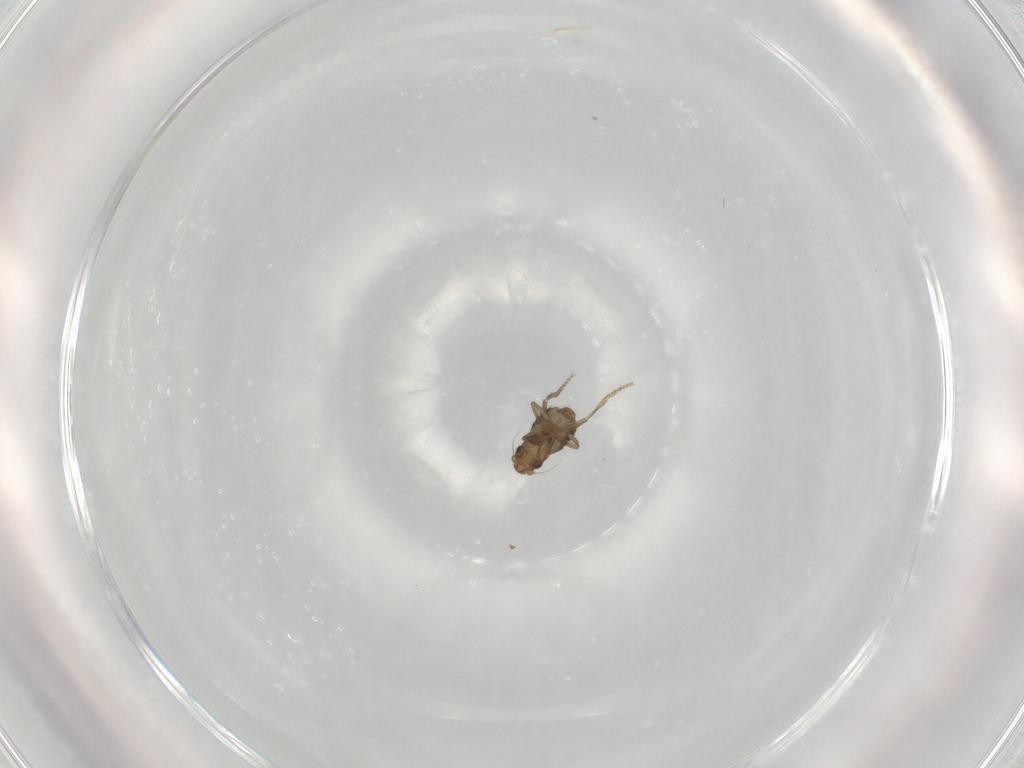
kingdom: Animalia
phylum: Arthropoda
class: Insecta
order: Diptera
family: Phoridae
